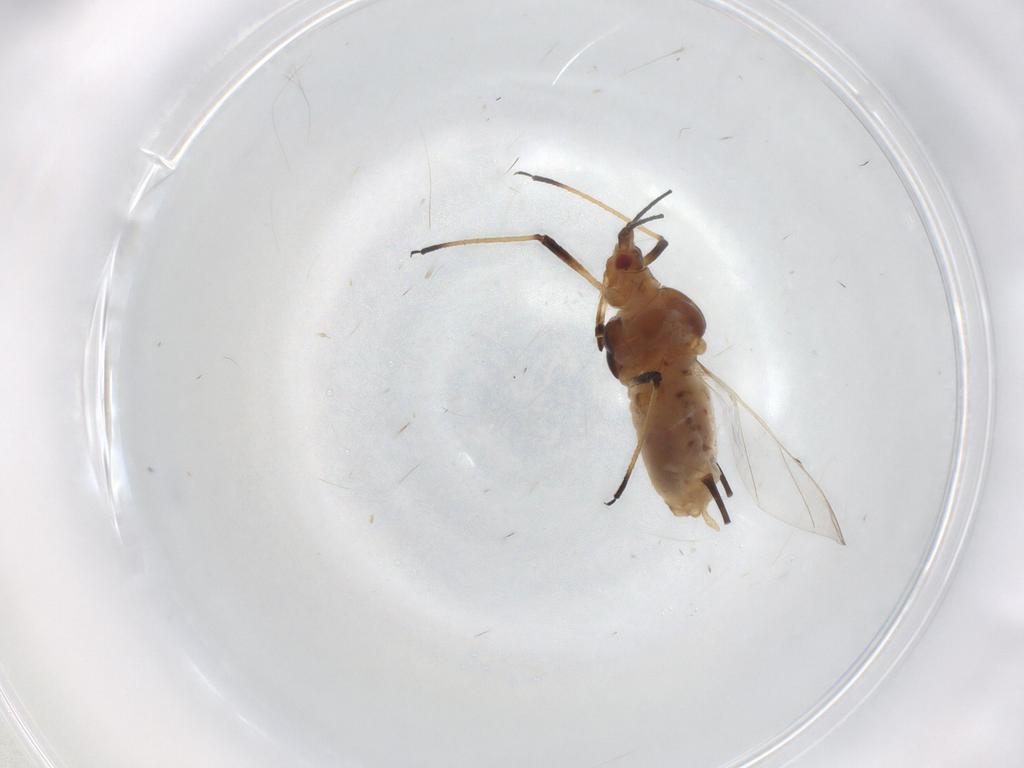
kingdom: Animalia
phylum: Arthropoda
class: Insecta
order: Hemiptera
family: Aphididae
